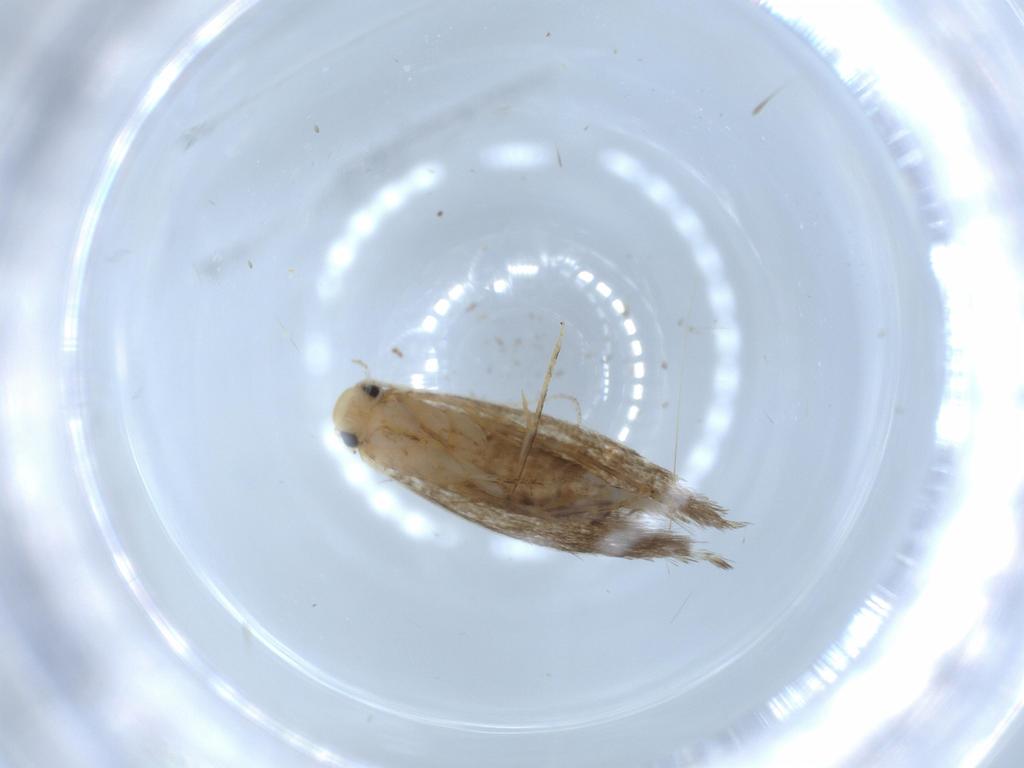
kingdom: Animalia
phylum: Arthropoda
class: Insecta
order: Lepidoptera
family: Tineidae
